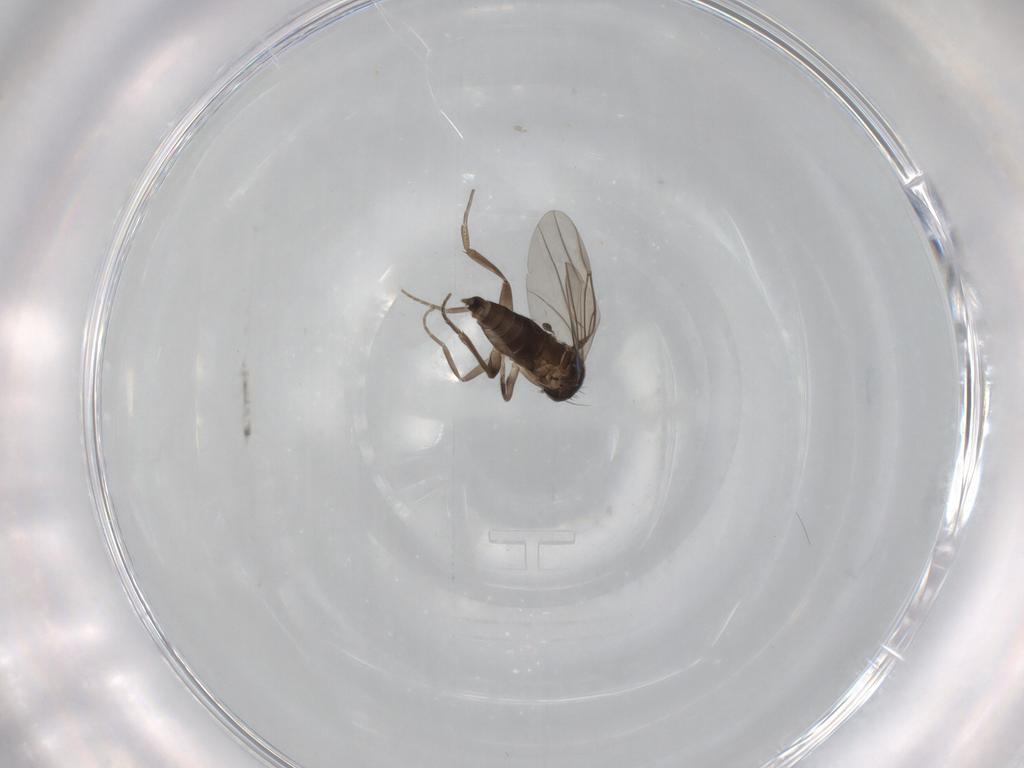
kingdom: Animalia
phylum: Arthropoda
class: Insecta
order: Diptera
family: Phoridae
